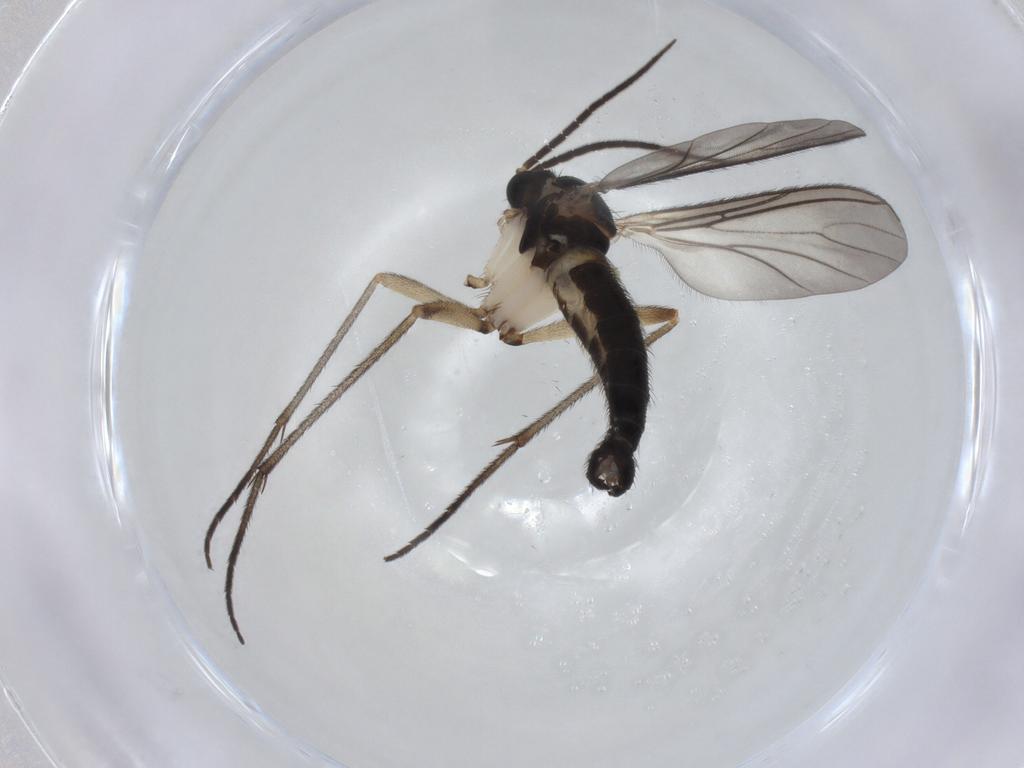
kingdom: Animalia
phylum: Arthropoda
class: Insecta
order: Diptera
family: Sciaridae
